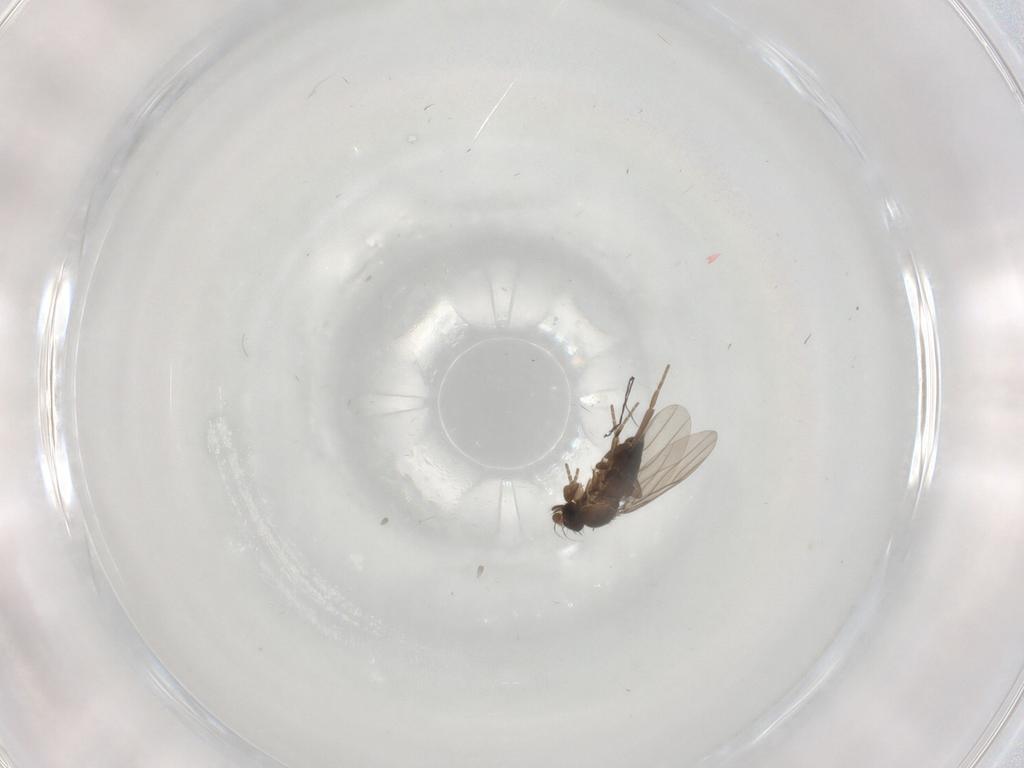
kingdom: Animalia
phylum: Arthropoda
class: Insecta
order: Diptera
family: Phoridae
